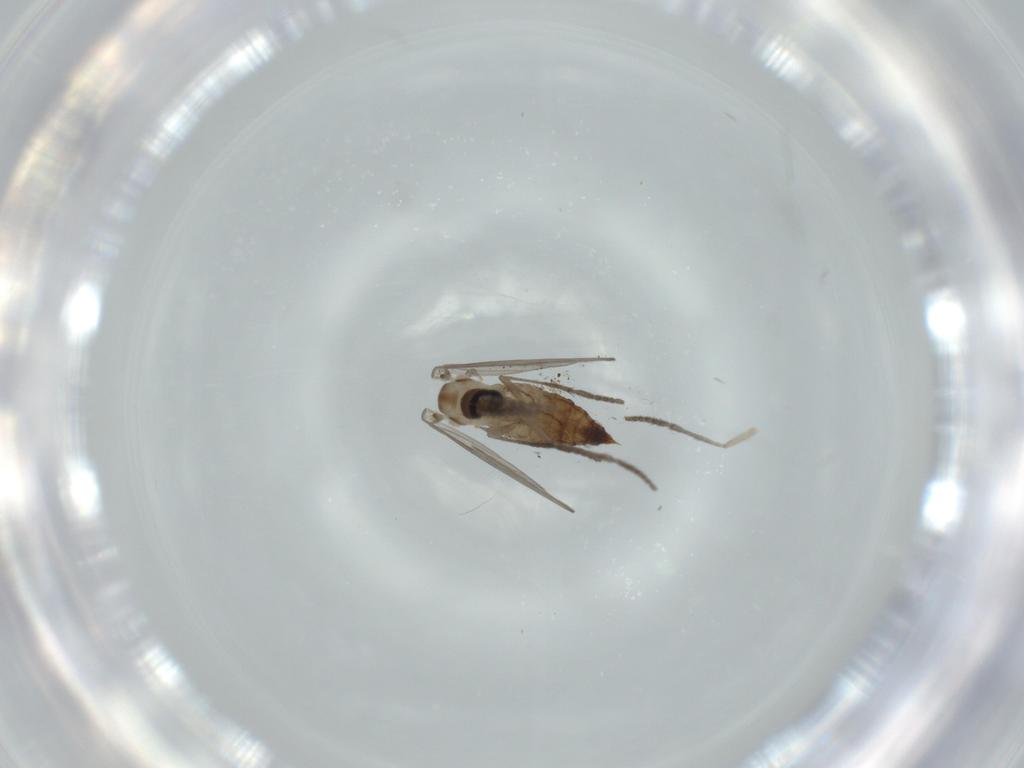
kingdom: Animalia
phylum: Arthropoda
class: Insecta
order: Diptera
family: Psychodidae
